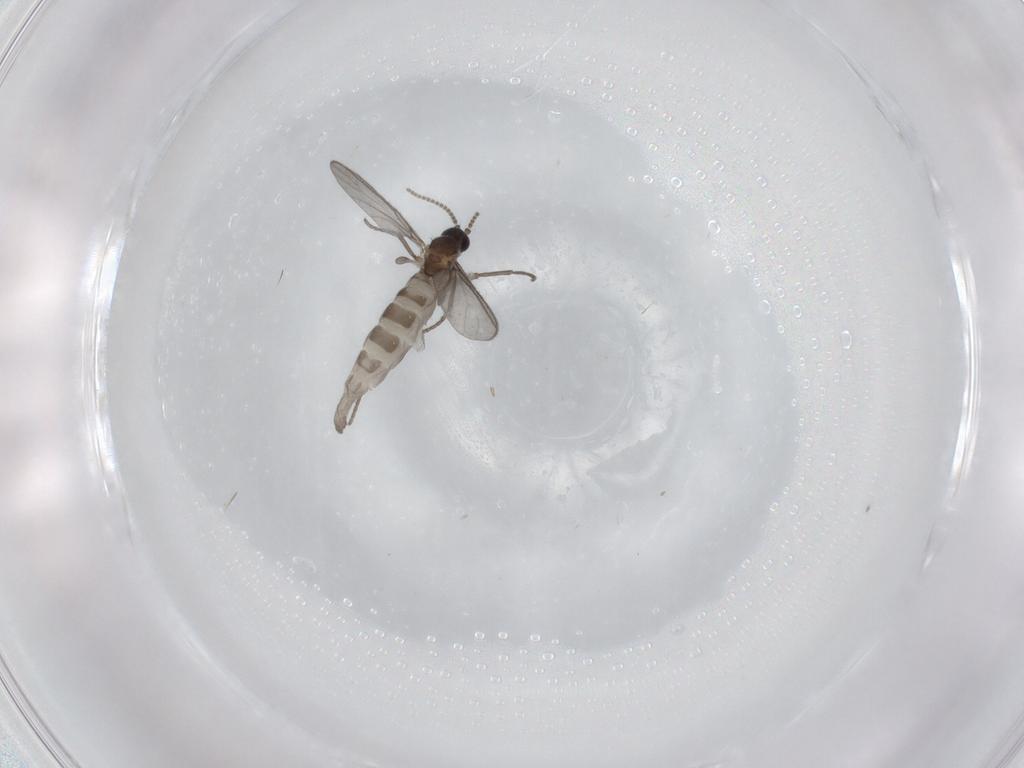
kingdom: Animalia
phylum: Arthropoda
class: Insecta
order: Diptera
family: Sciaridae
